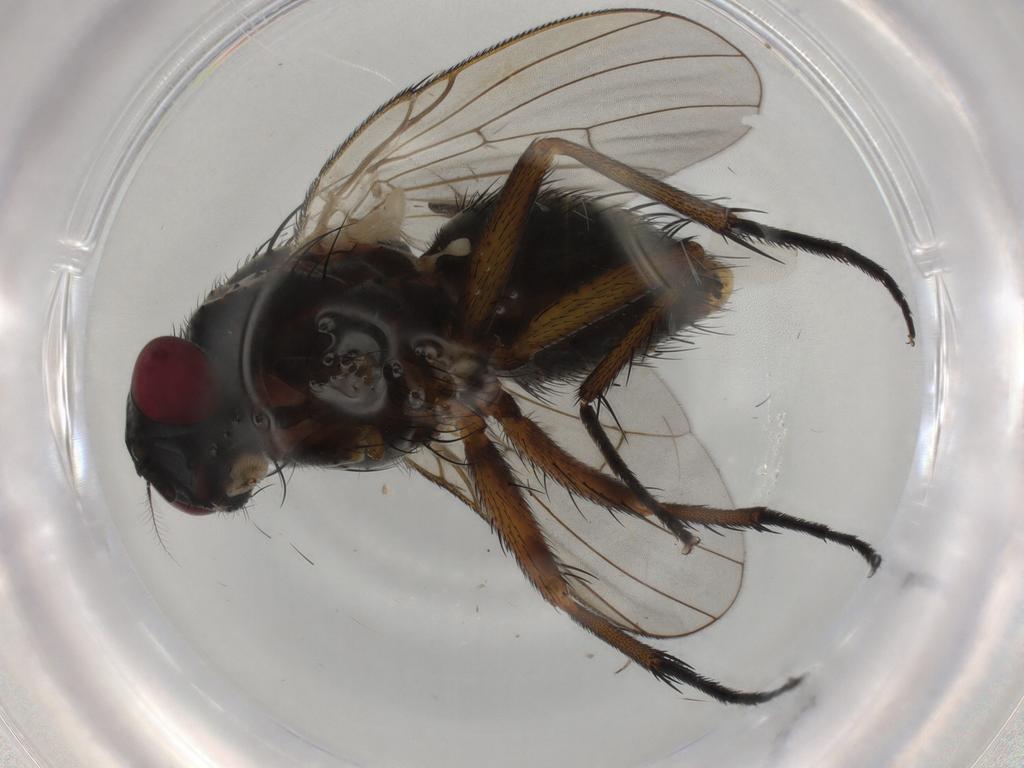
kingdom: Animalia
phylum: Arthropoda
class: Insecta
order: Diptera
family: Muscidae
